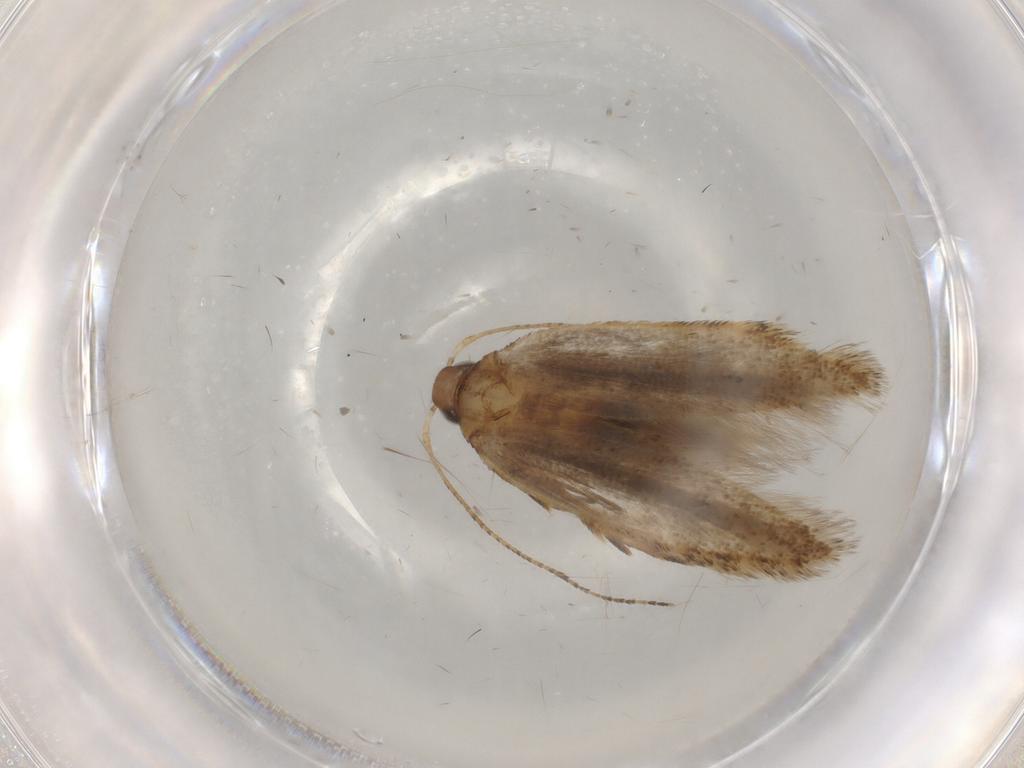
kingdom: Animalia
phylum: Arthropoda
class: Insecta
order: Lepidoptera
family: Gelechiidae
